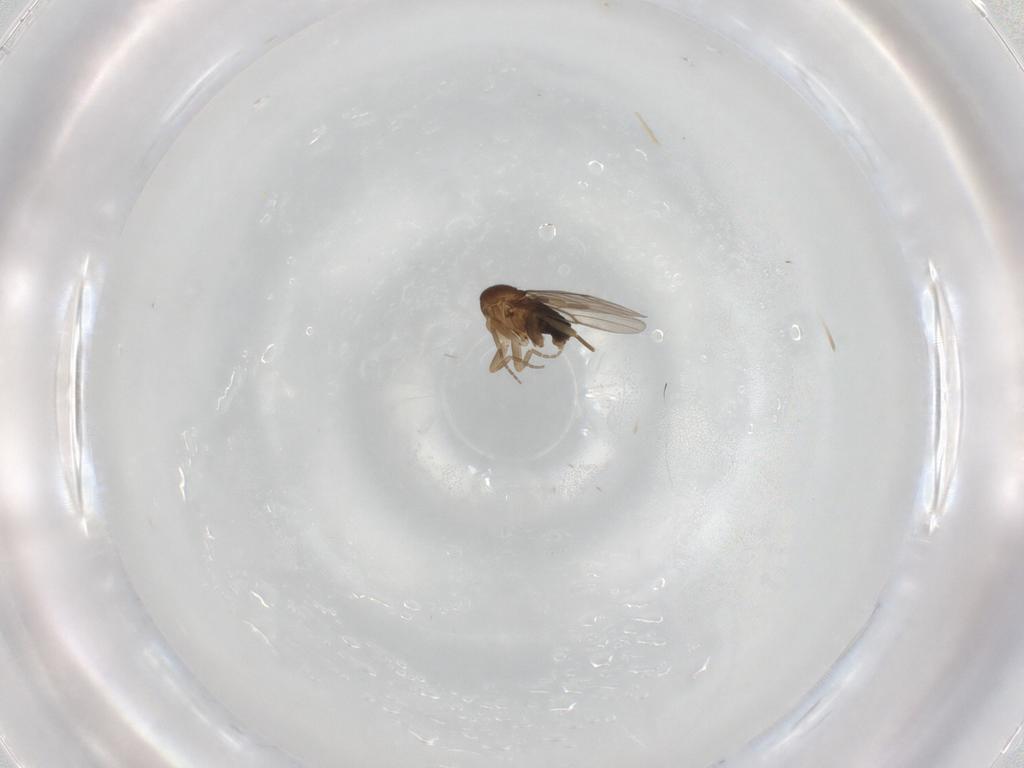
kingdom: Animalia
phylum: Arthropoda
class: Insecta
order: Diptera
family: Phoridae
